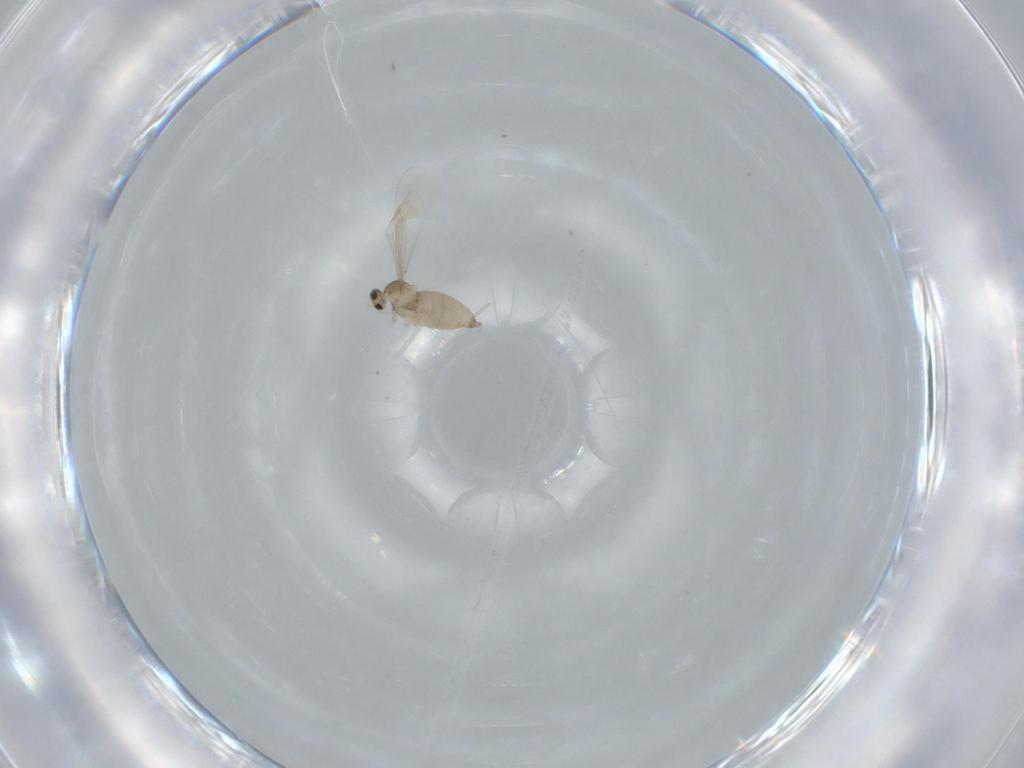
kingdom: Animalia
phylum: Arthropoda
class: Insecta
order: Diptera
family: Cecidomyiidae
